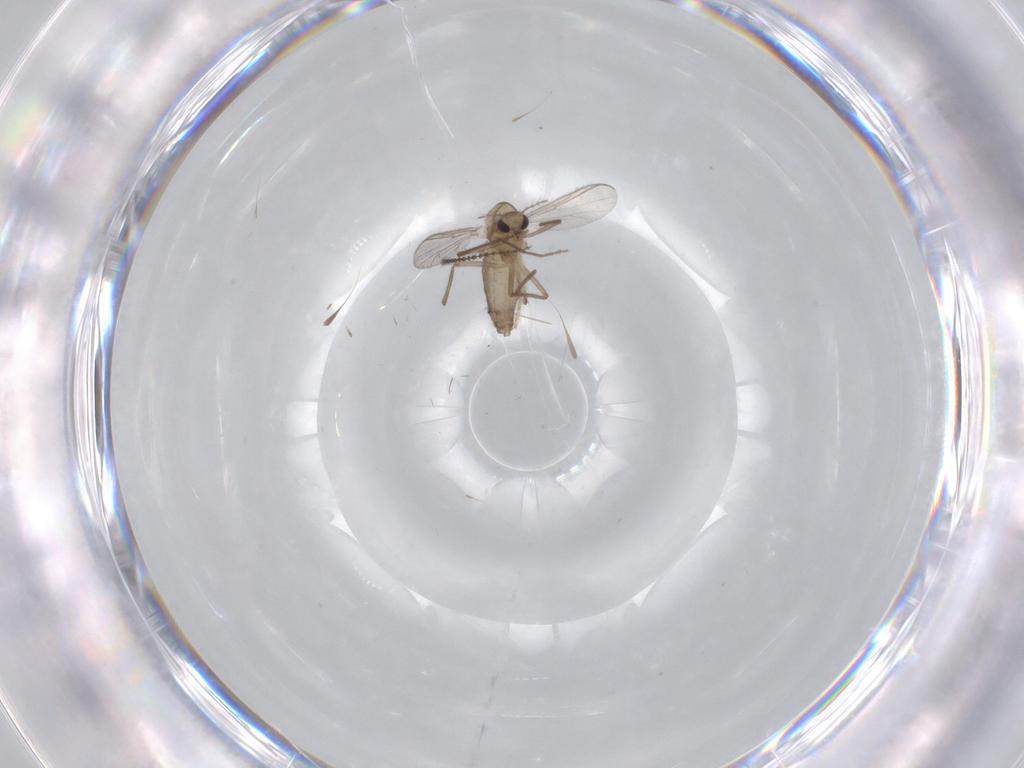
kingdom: Animalia
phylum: Arthropoda
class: Insecta
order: Diptera
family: Chironomidae
